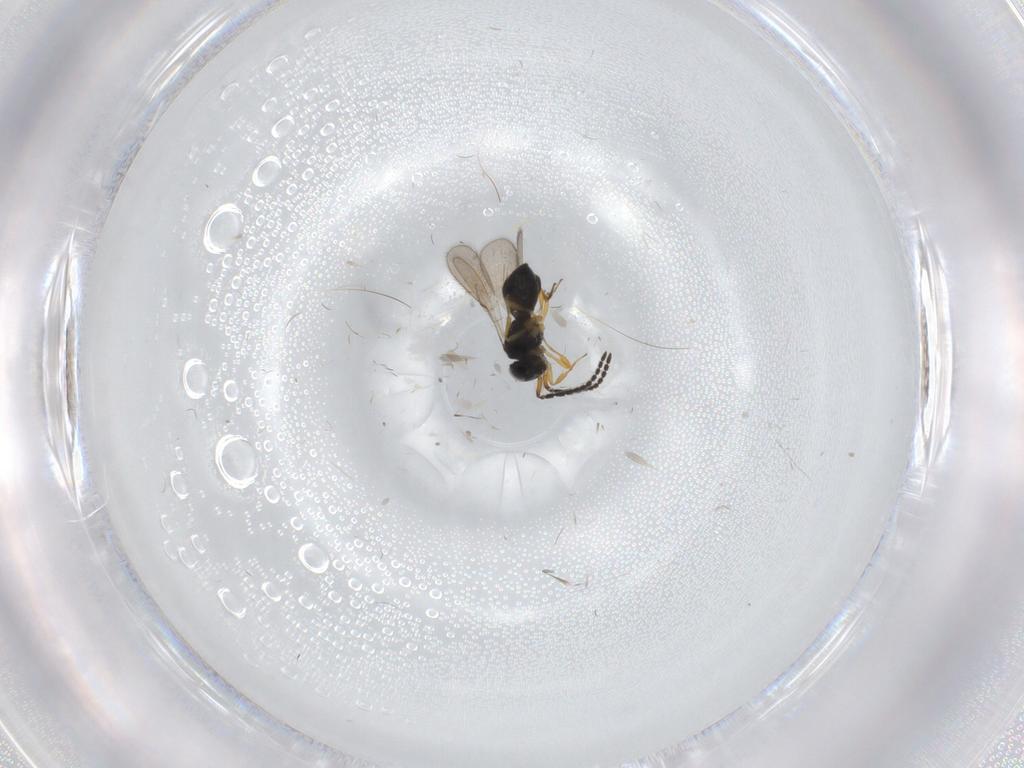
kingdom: Animalia
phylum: Arthropoda
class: Insecta
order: Hymenoptera
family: Scelionidae
